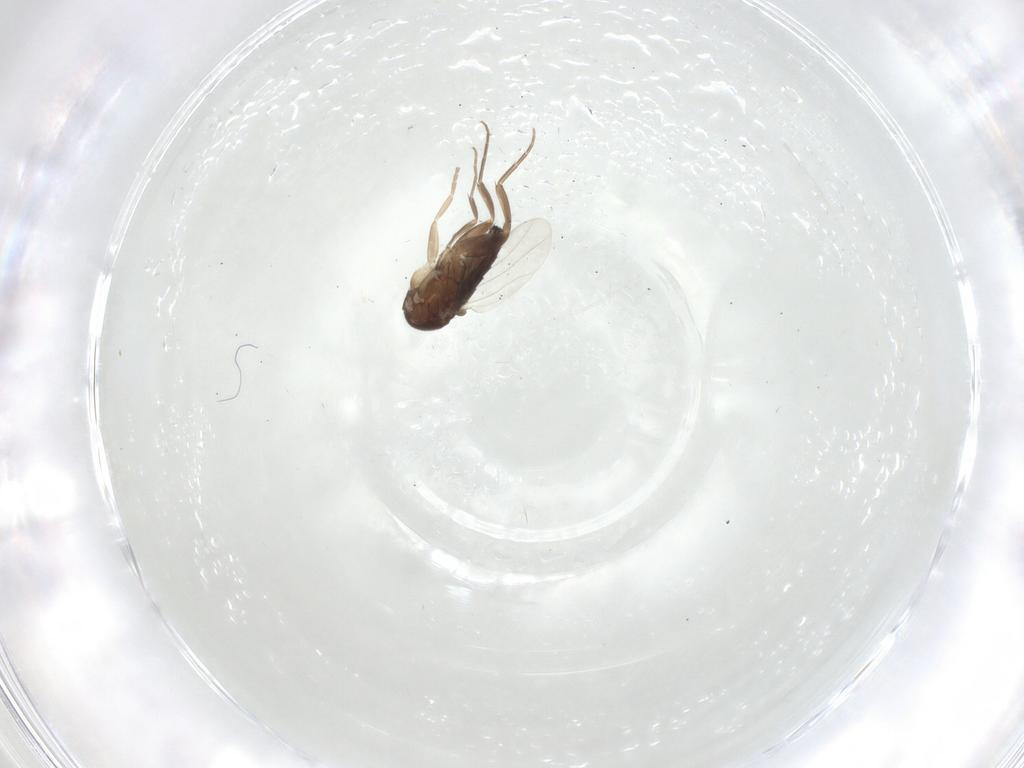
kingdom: Animalia
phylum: Arthropoda
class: Insecta
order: Diptera
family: Phoridae
